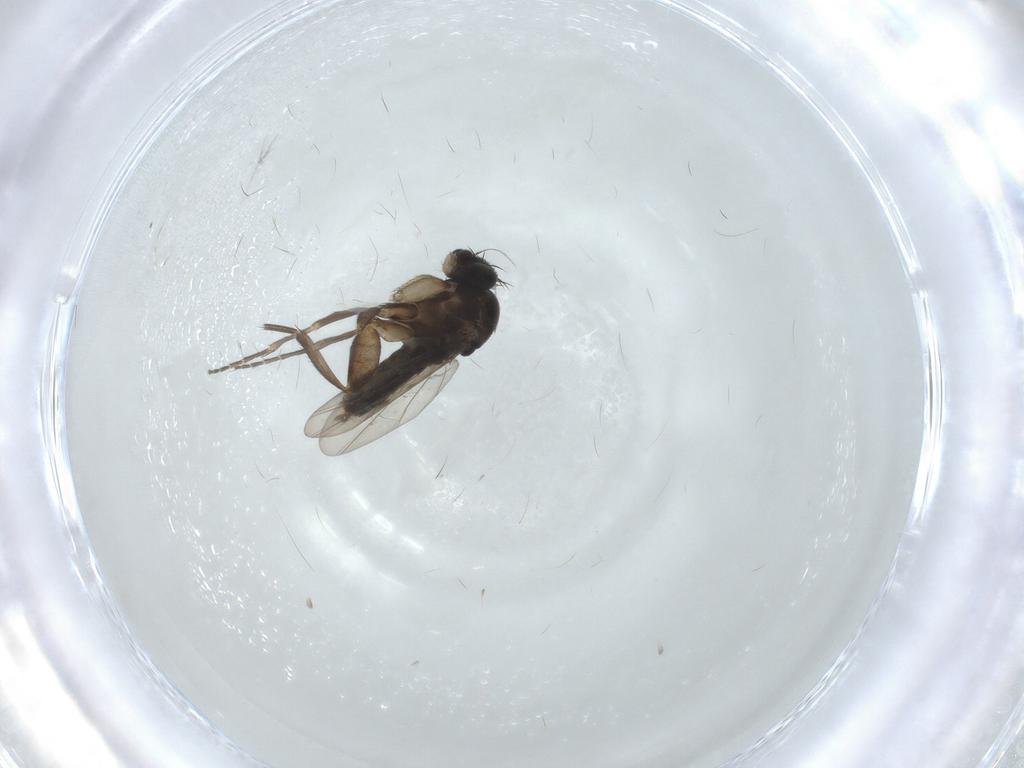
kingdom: Animalia
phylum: Arthropoda
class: Insecta
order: Diptera
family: Phoridae
